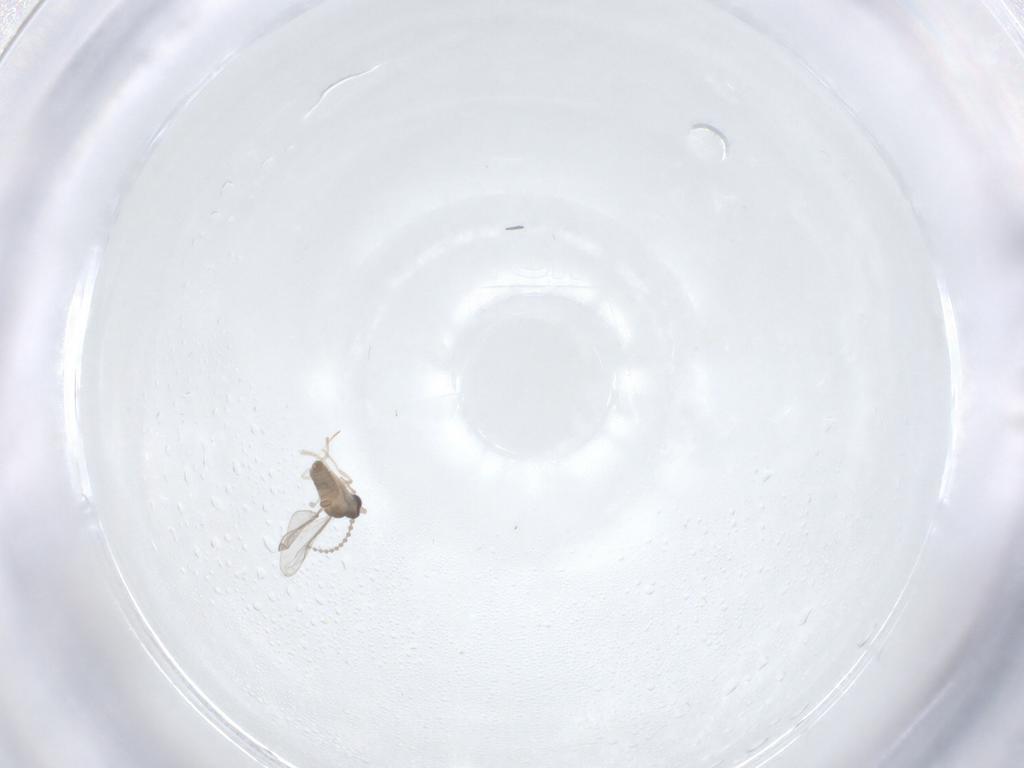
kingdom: Animalia
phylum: Arthropoda
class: Insecta
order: Diptera
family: Cecidomyiidae
